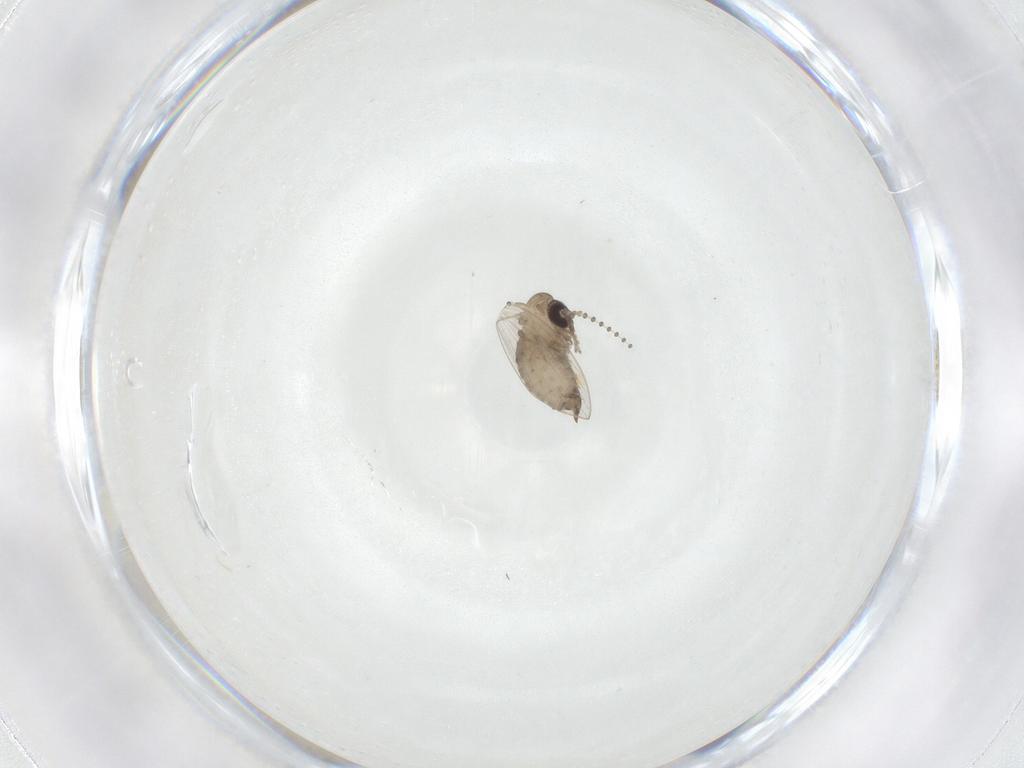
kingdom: Animalia
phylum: Arthropoda
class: Insecta
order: Diptera
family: Psychodidae
